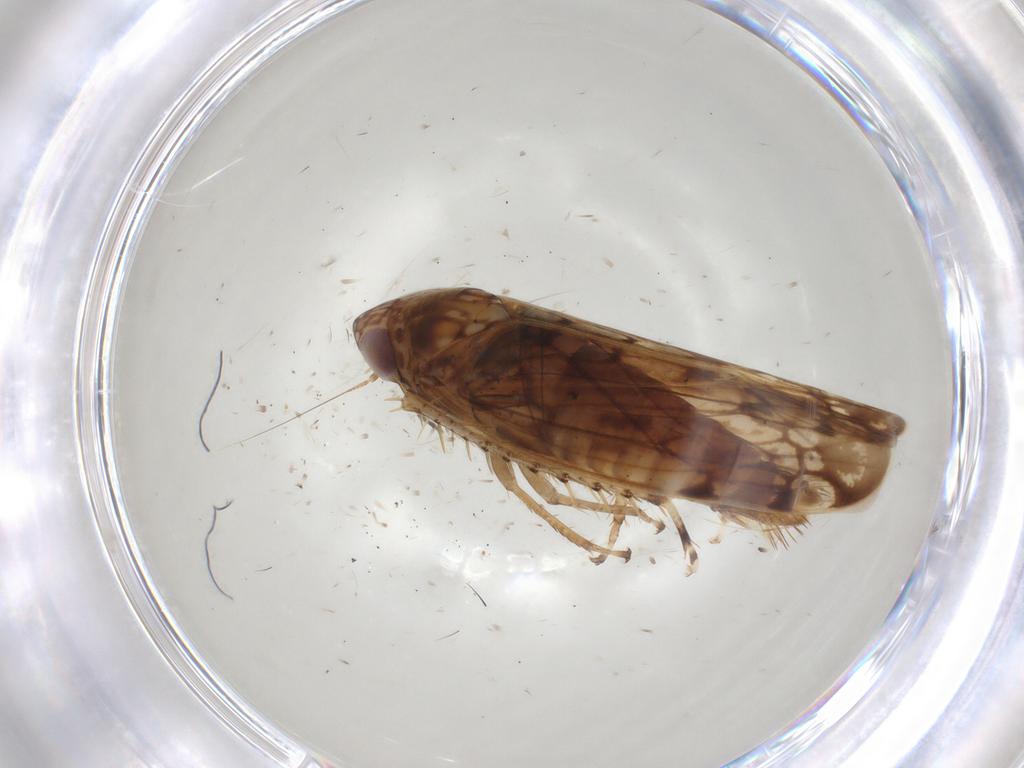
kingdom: Animalia
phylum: Arthropoda
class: Insecta
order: Hemiptera
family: Cicadellidae
